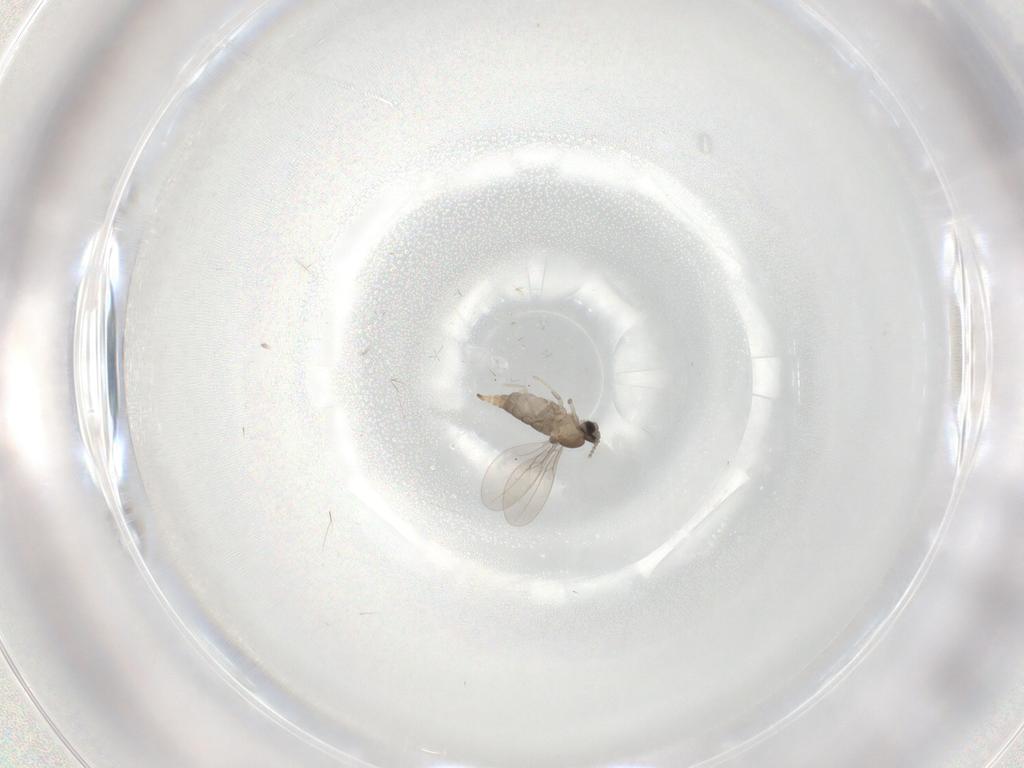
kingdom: Animalia
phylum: Arthropoda
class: Insecta
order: Diptera
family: Cecidomyiidae
